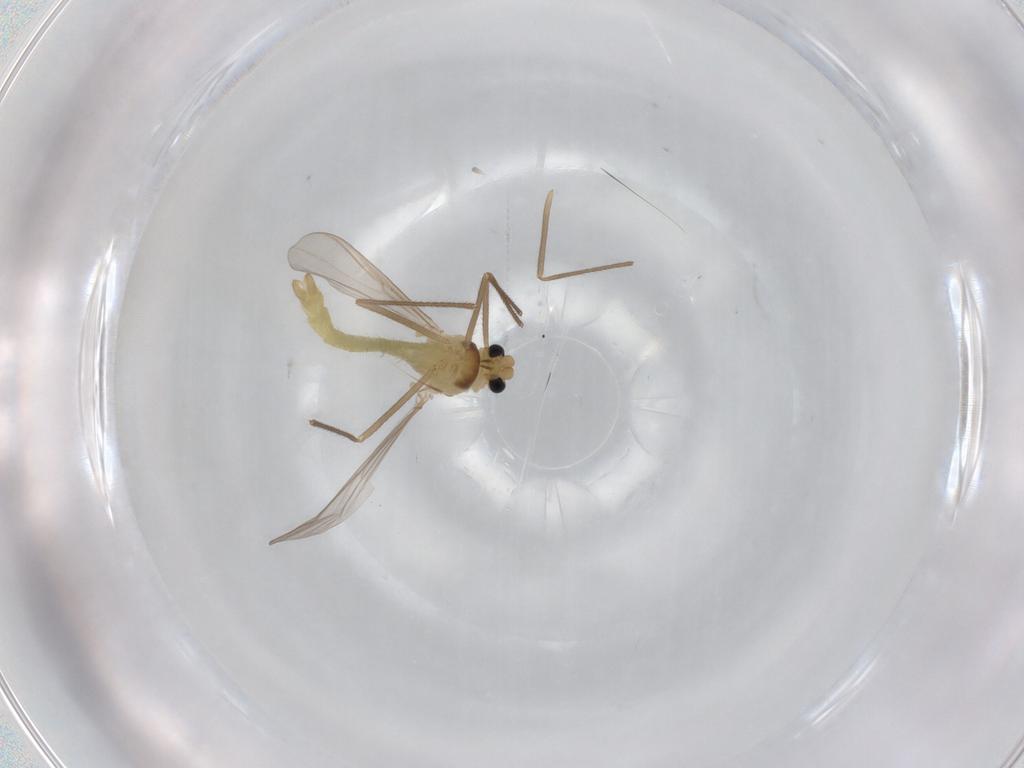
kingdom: Animalia
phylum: Arthropoda
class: Insecta
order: Diptera
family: Chironomidae
